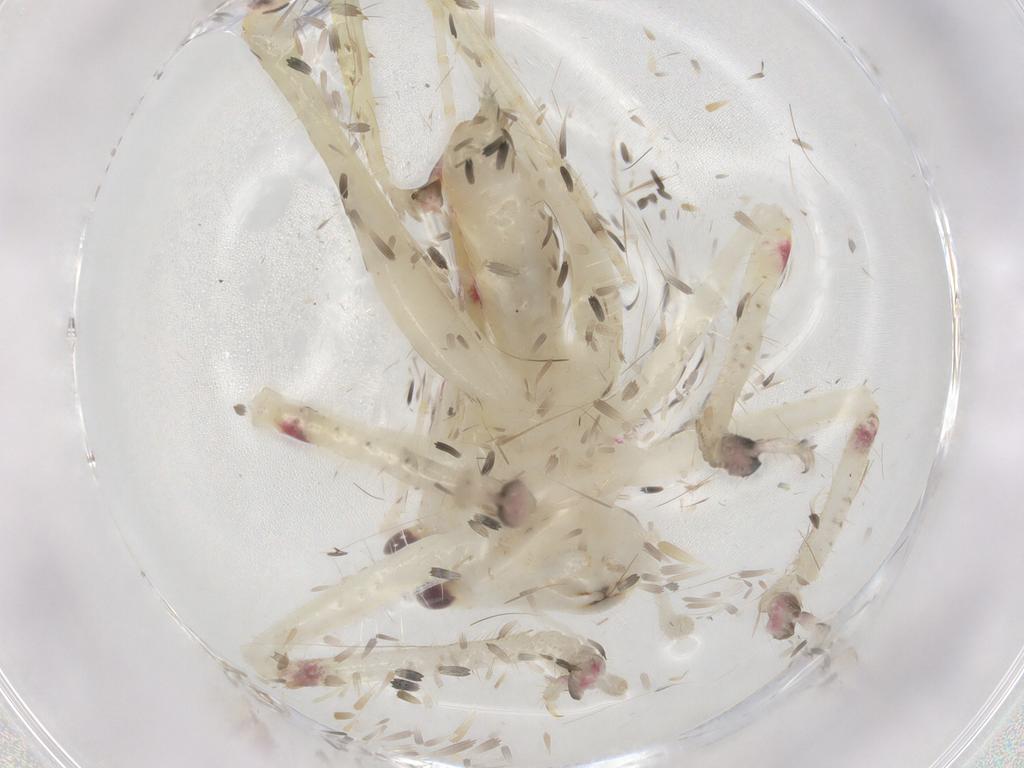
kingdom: Animalia
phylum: Arthropoda
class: Insecta
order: Orthoptera
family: Tettigoniidae
